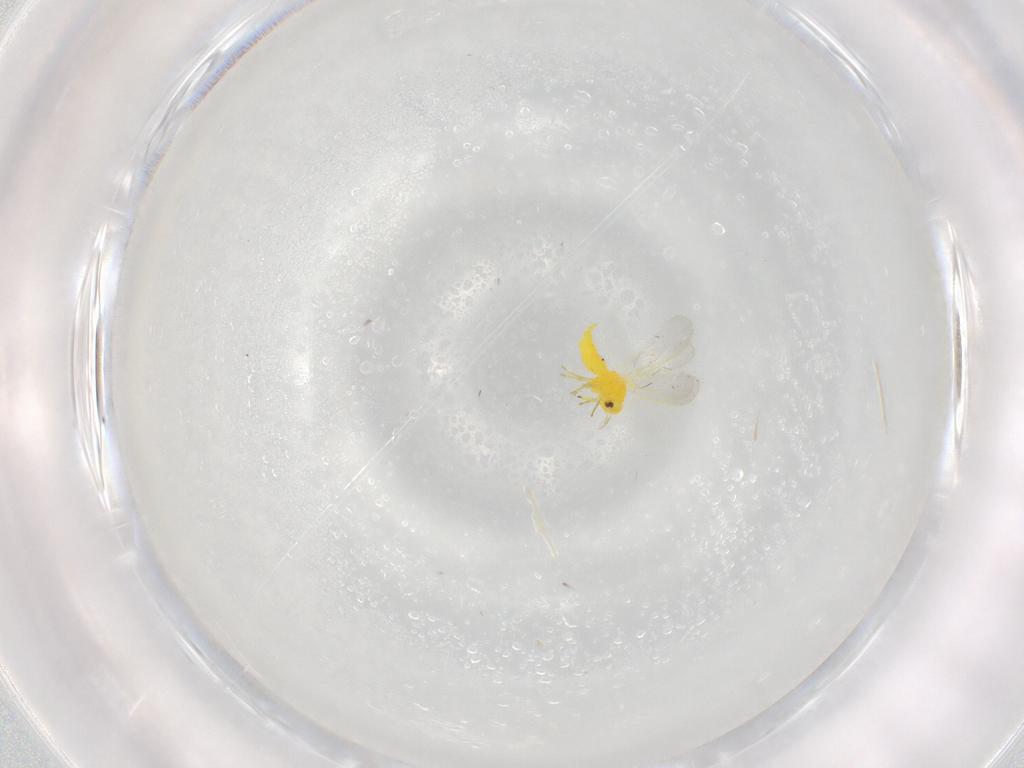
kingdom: Animalia
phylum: Arthropoda
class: Insecta
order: Hemiptera
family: Aleyrodidae
